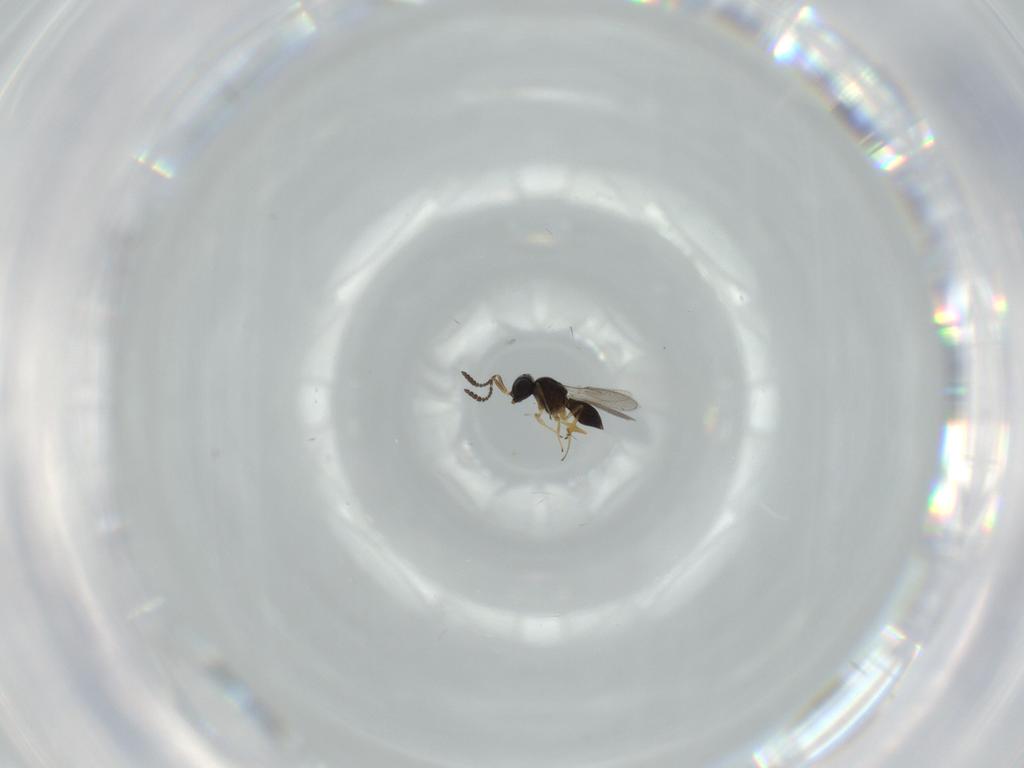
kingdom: Animalia
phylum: Arthropoda
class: Insecta
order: Hymenoptera
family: Scelionidae
